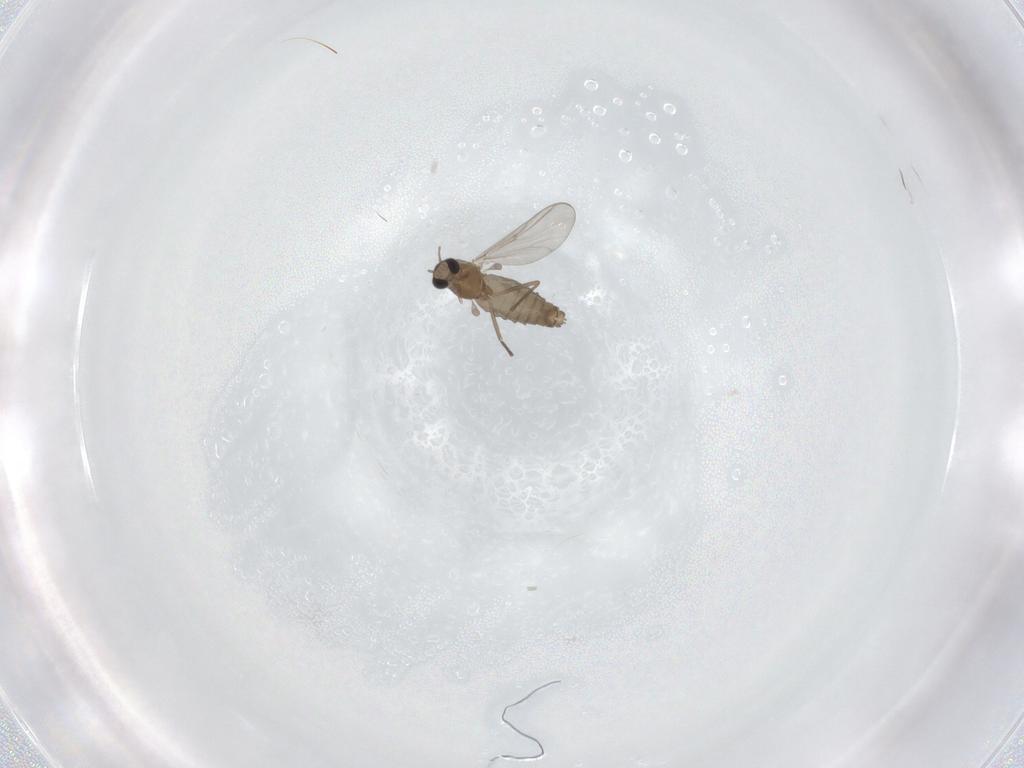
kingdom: Animalia
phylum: Arthropoda
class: Insecta
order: Diptera
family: Chironomidae
